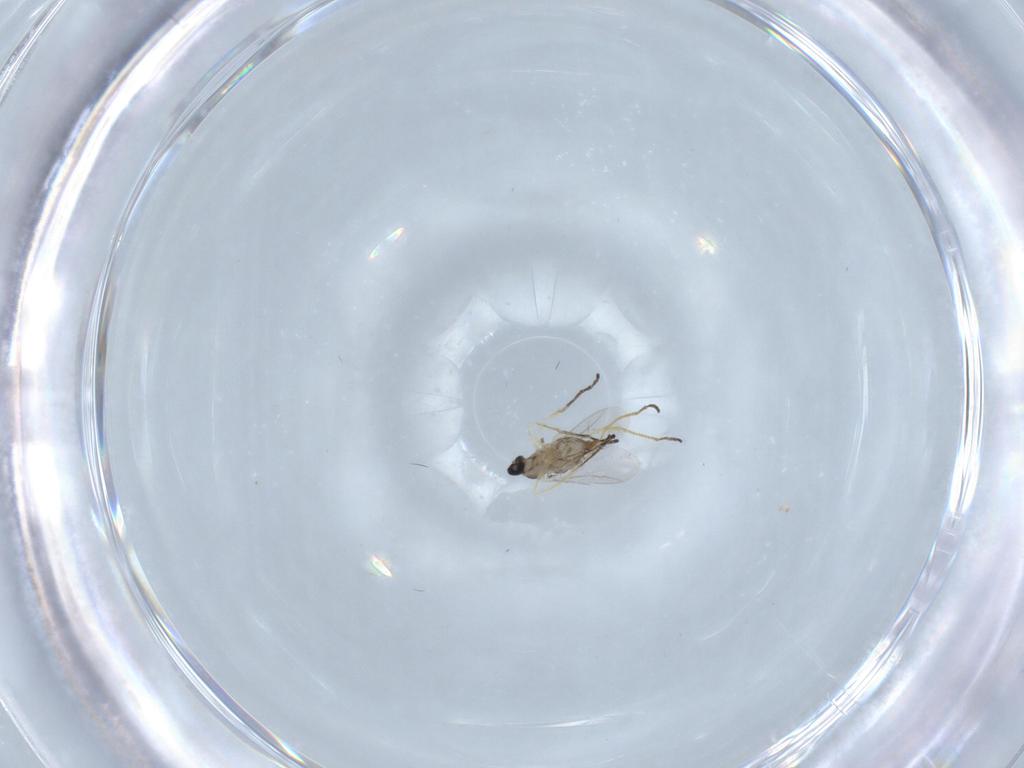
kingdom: Animalia
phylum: Arthropoda
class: Insecta
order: Diptera
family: Cecidomyiidae
